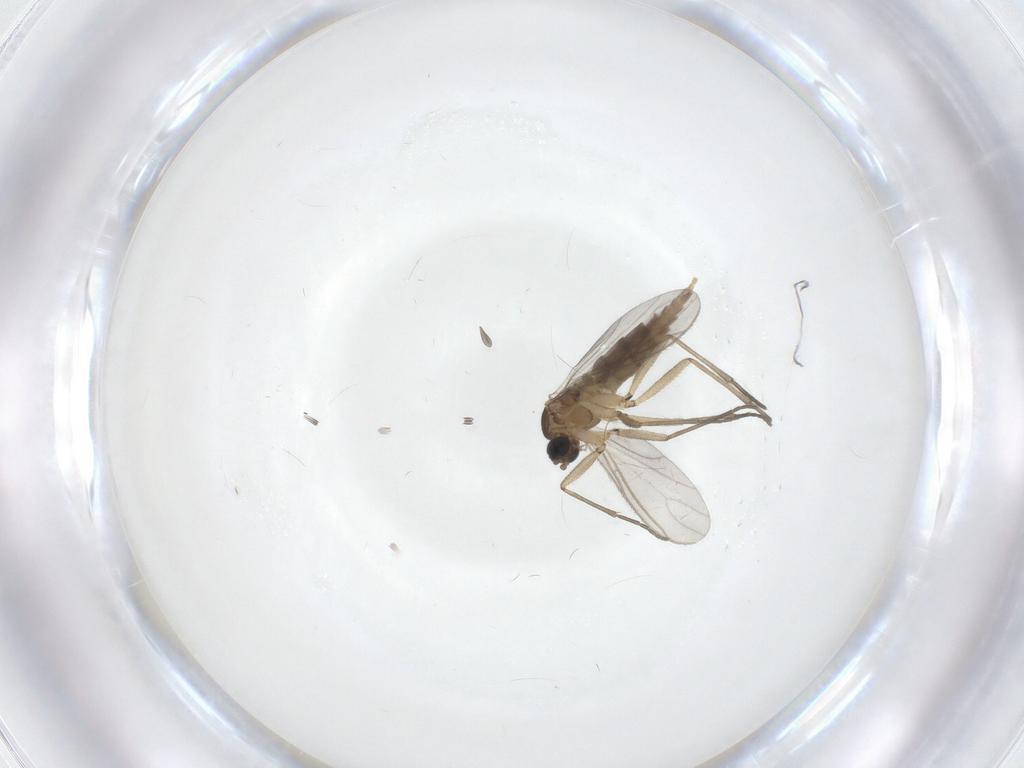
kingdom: Animalia
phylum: Arthropoda
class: Insecta
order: Diptera
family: Sciaridae
